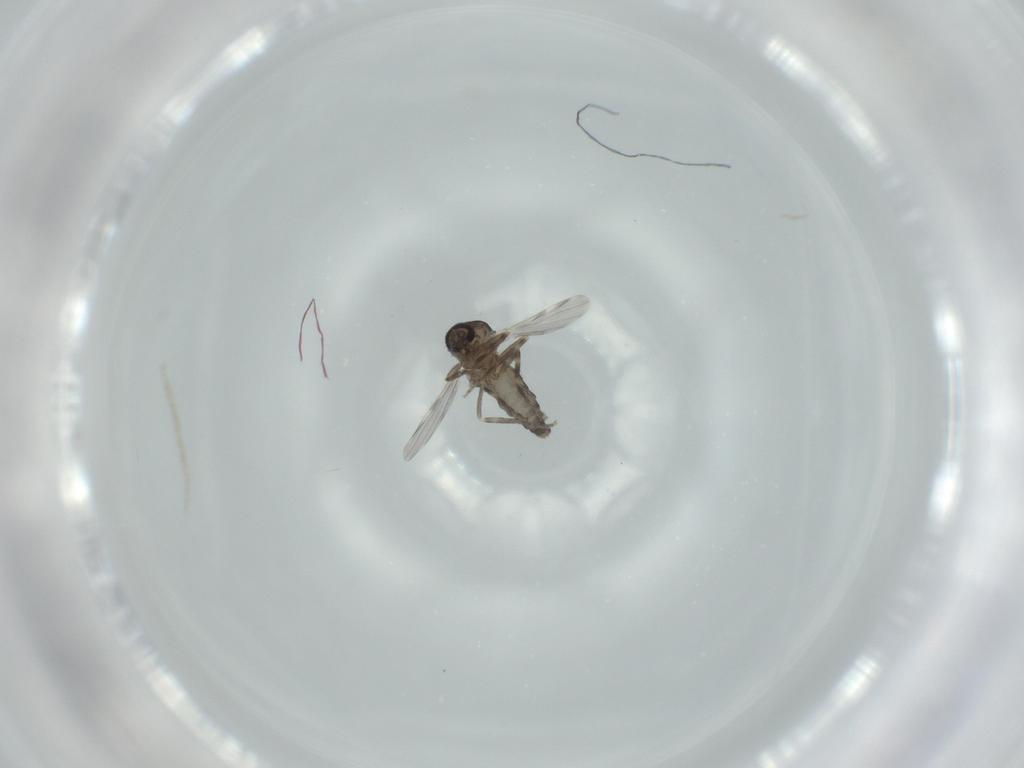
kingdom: Animalia
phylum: Arthropoda
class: Insecta
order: Diptera
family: Ceratopogonidae
